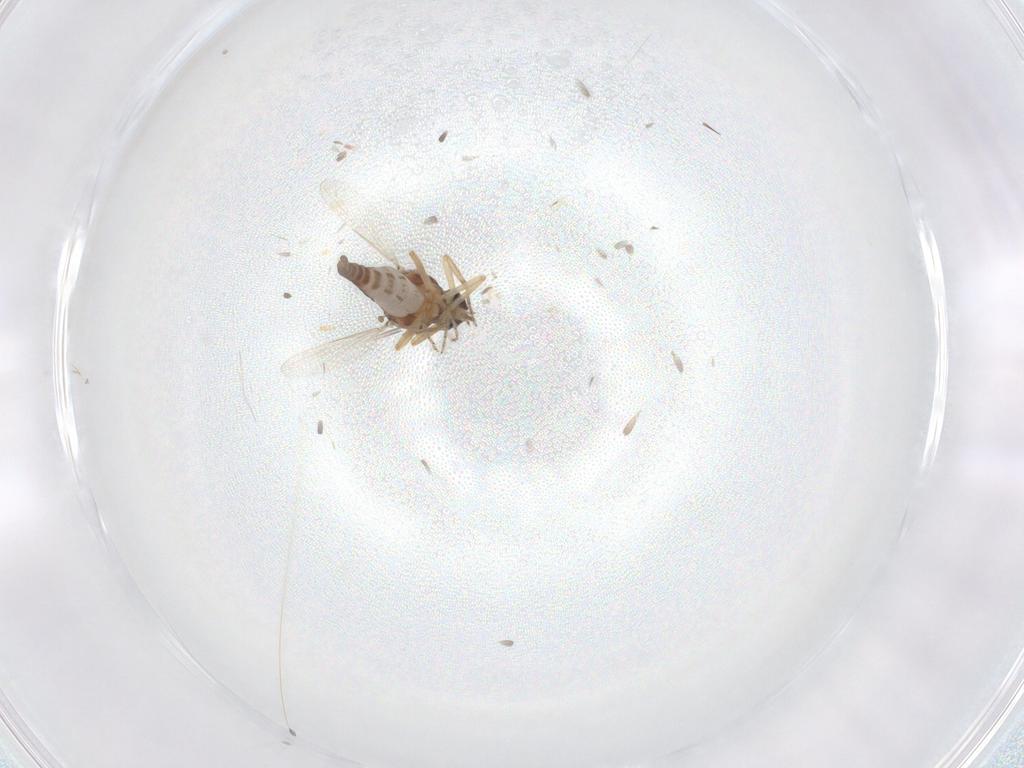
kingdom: Animalia
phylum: Arthropoda
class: Insecta
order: Diptera
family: Ceratopogonidae
